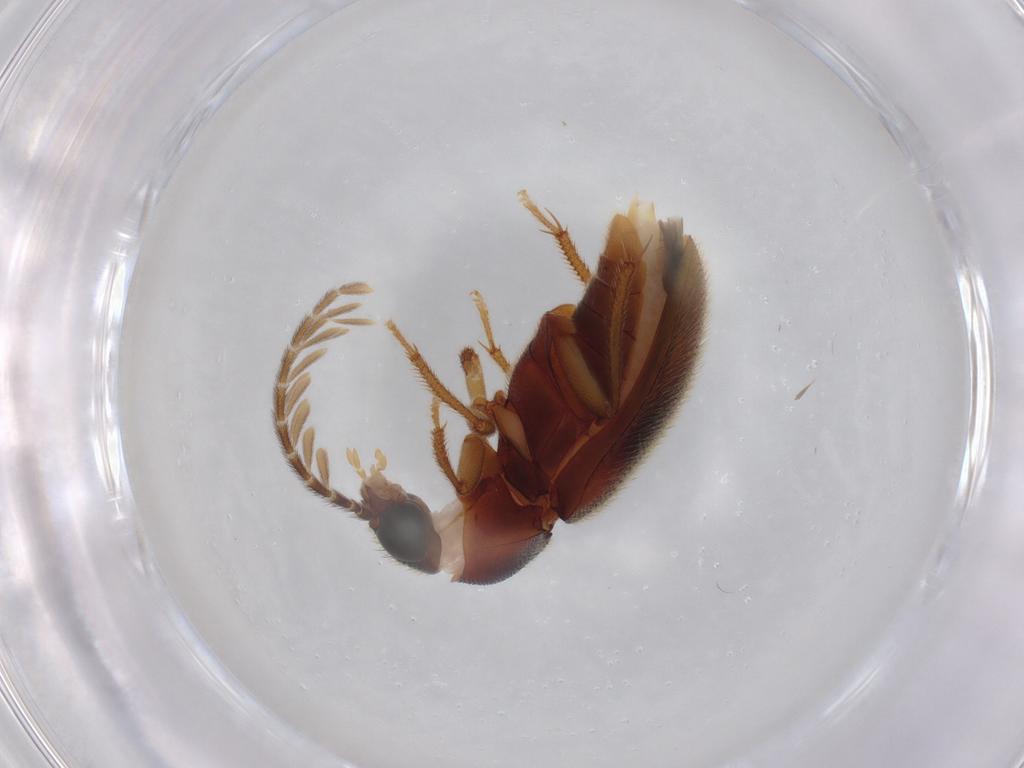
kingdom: Animalia
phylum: Arthropoda
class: Insecta
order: Coleoptera
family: Ptilodactylidae
